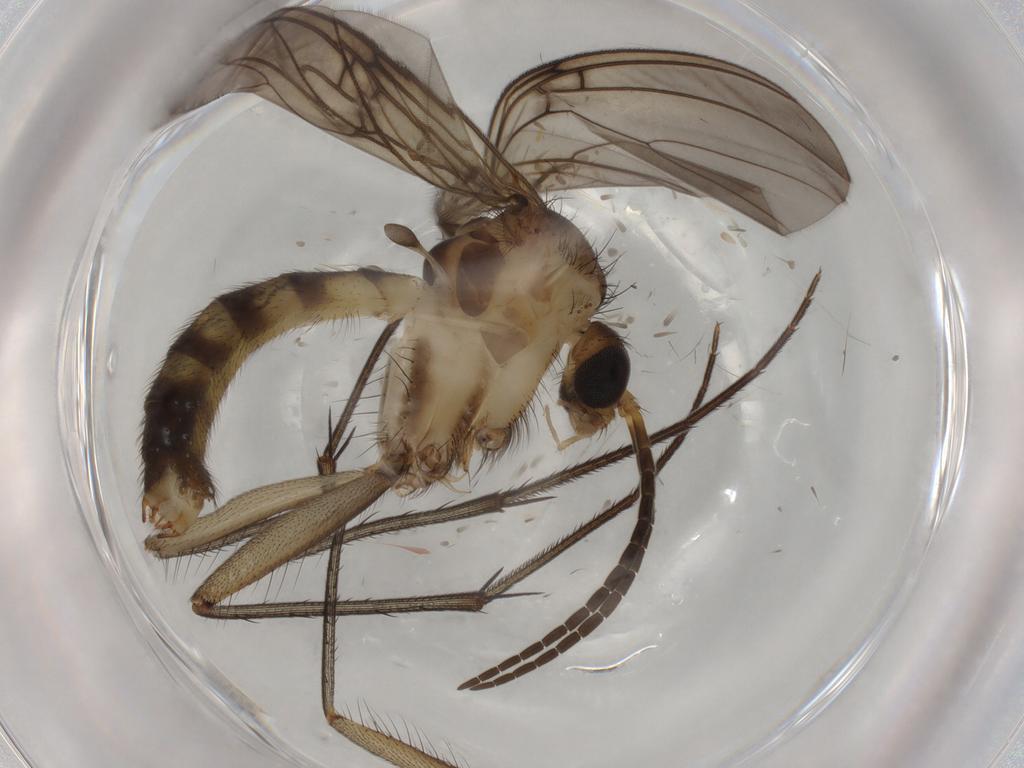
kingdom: Animalia
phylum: Arthropoda
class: Insecta
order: Diptera
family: Mycetophilidae
